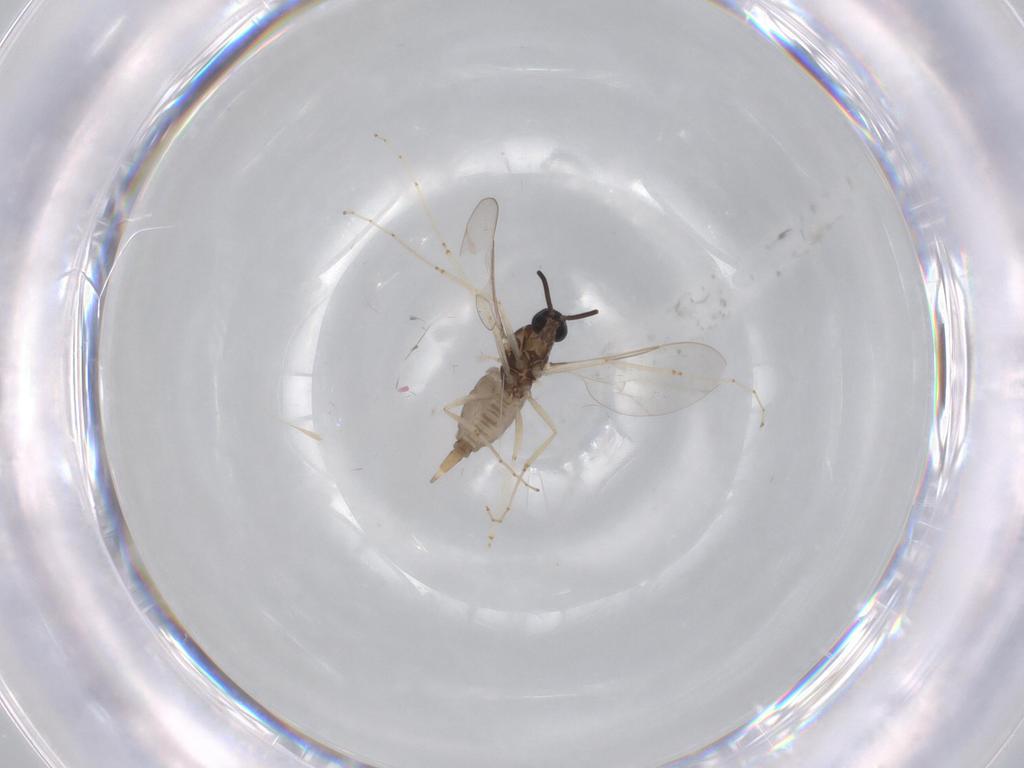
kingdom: Animalia
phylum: Arthropoda
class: Insecta
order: Diptera
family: Cecidomyiidae
